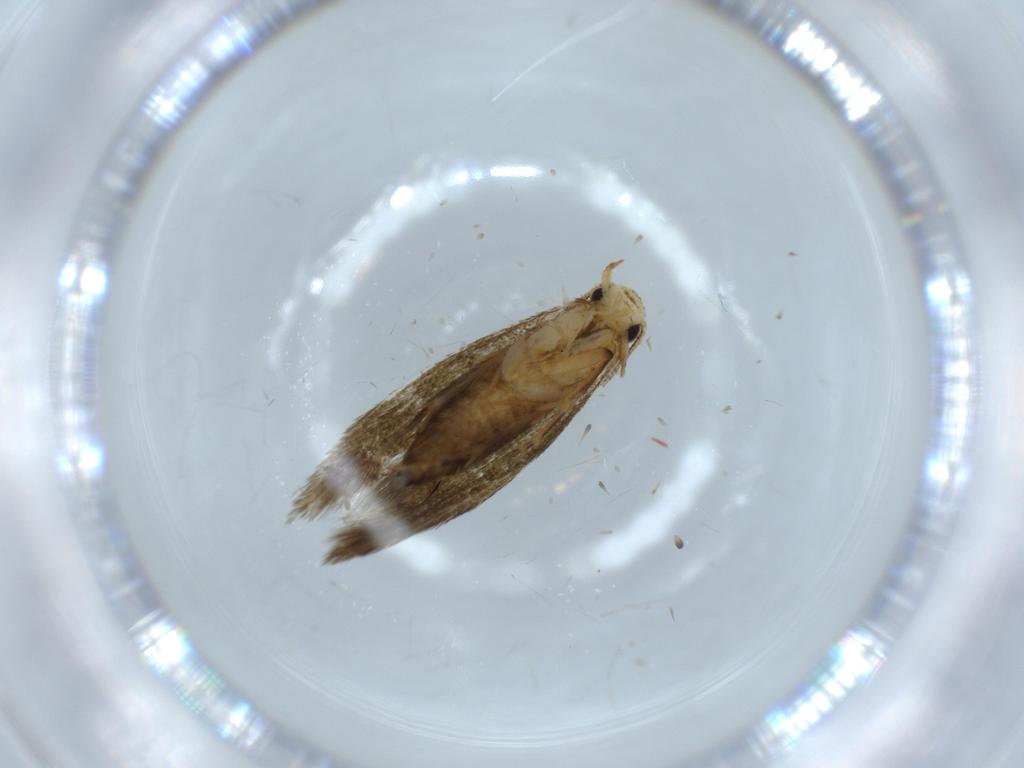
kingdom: Animalia
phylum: Arthropoda
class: Insecta
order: Lepidoptera
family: Tineidae
